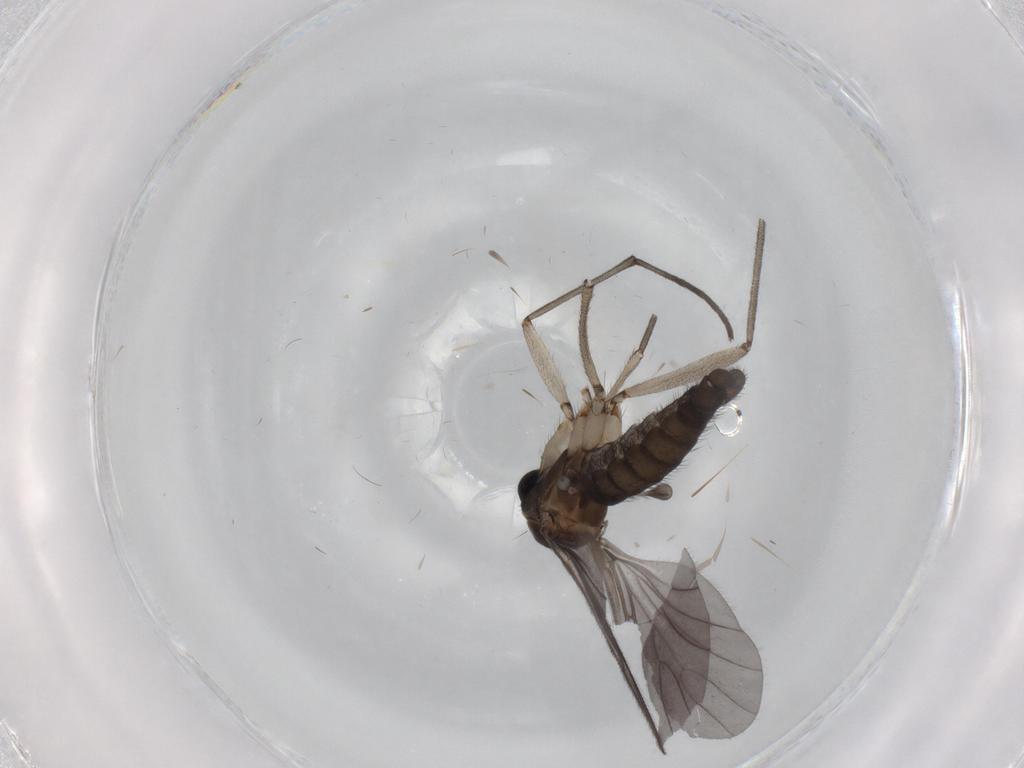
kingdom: Animalia
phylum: Arthropoda
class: Insecta
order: Diptera
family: Sciaridae
